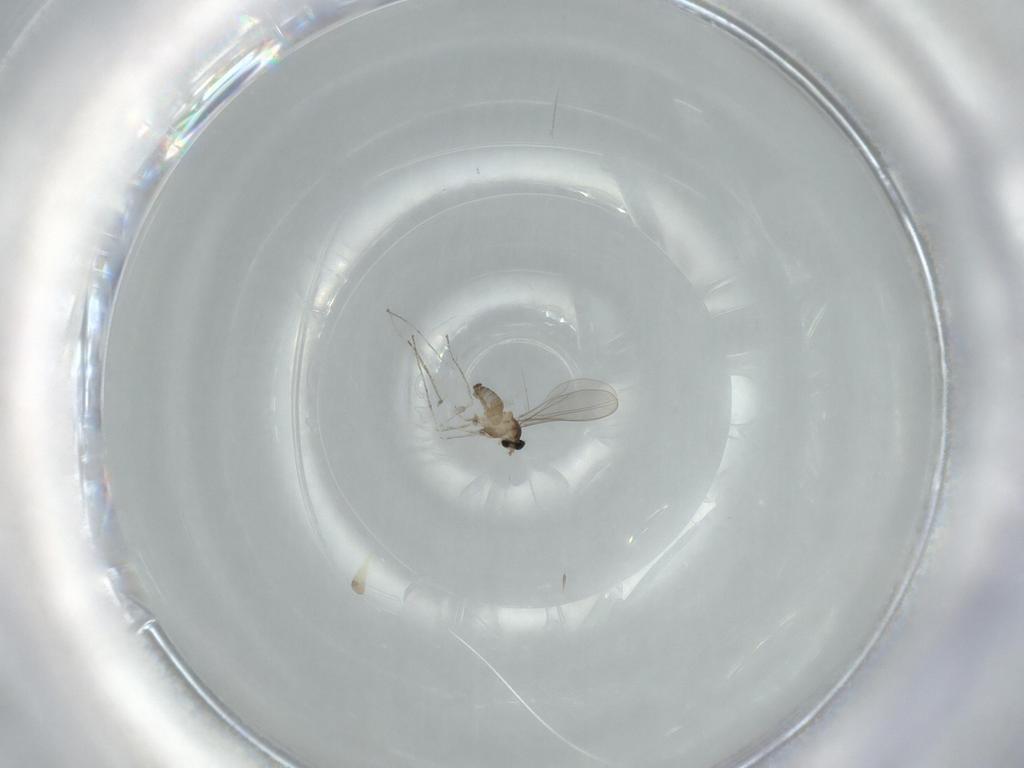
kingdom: Animalia
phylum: Arthropoda
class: Insecta
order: Diptera
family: Cecidomyiidae
